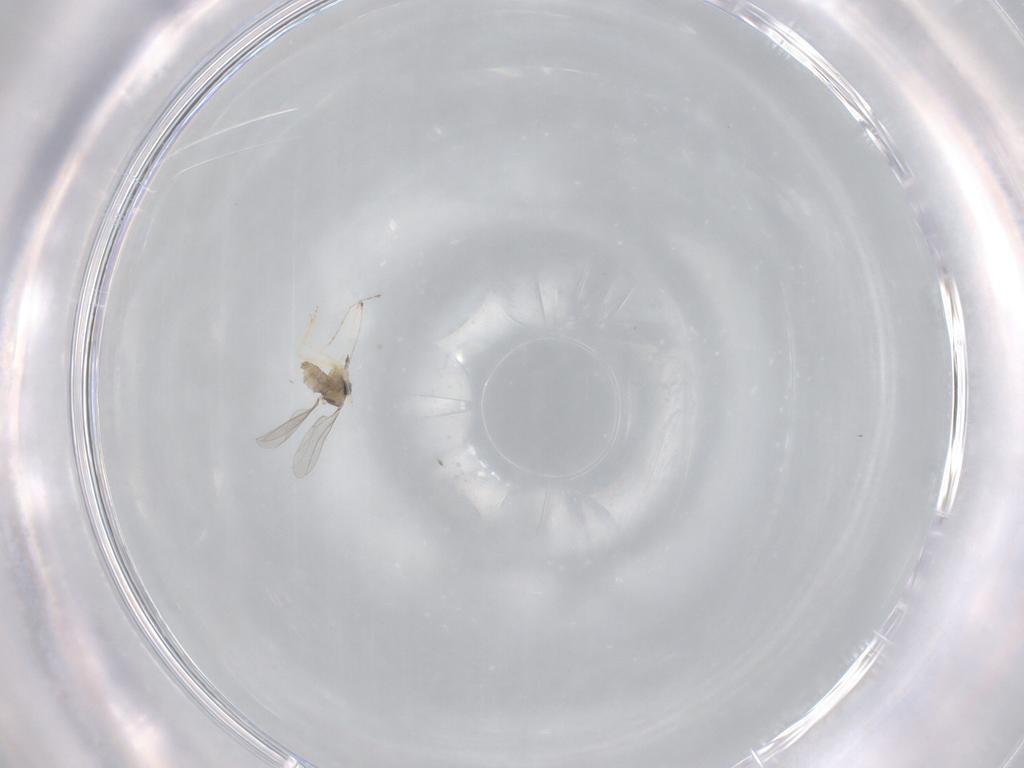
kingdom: Animalia
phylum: Arthropoda
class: Insecta
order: Diptera
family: Cecidomyiidae
